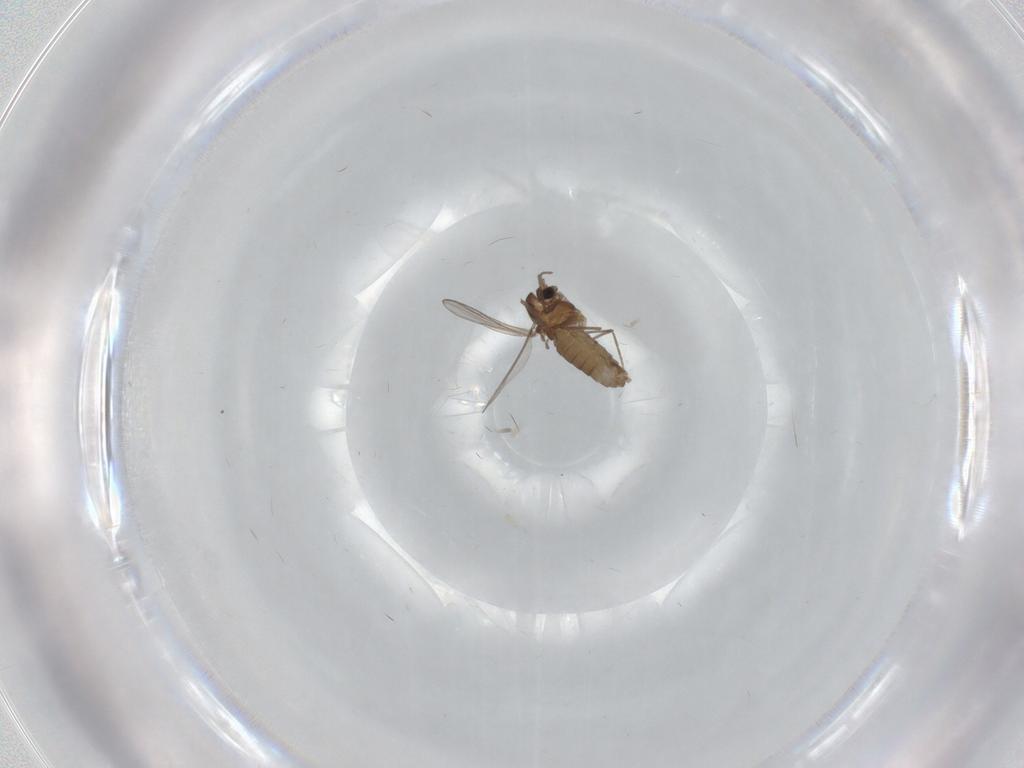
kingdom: Animalia
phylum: Arthropoda
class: Insecta
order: Diptera
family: Chironomidae
